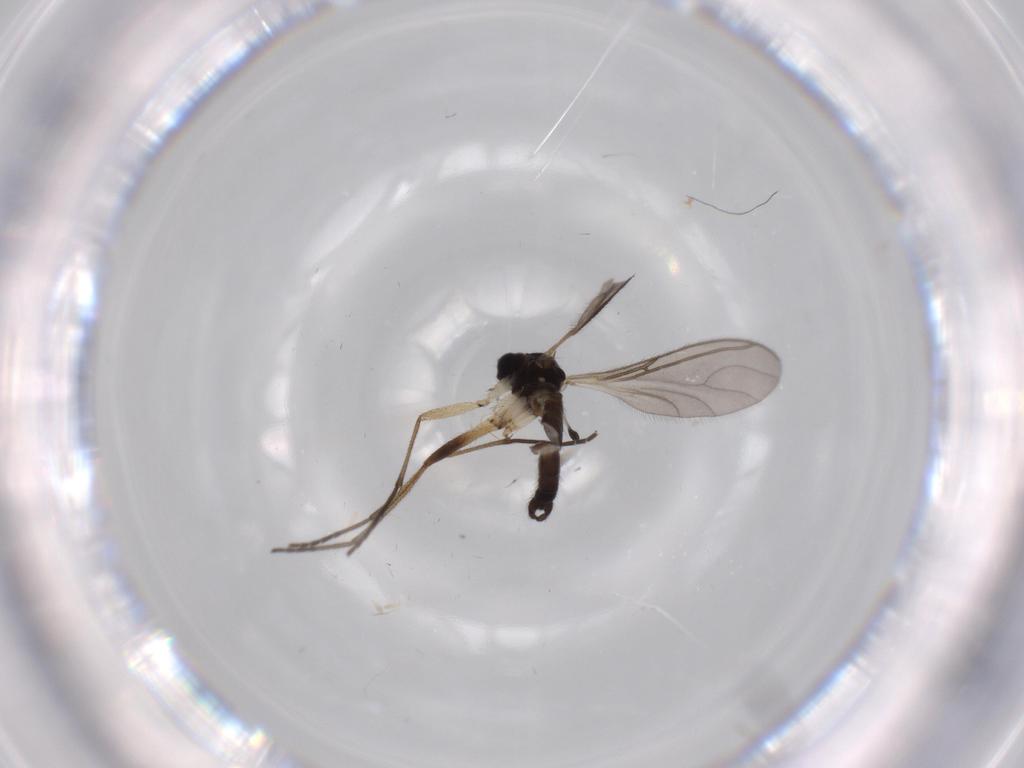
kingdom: Animalia
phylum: Arthropoda
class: Insecta
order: Diptera
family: Sciaridae
